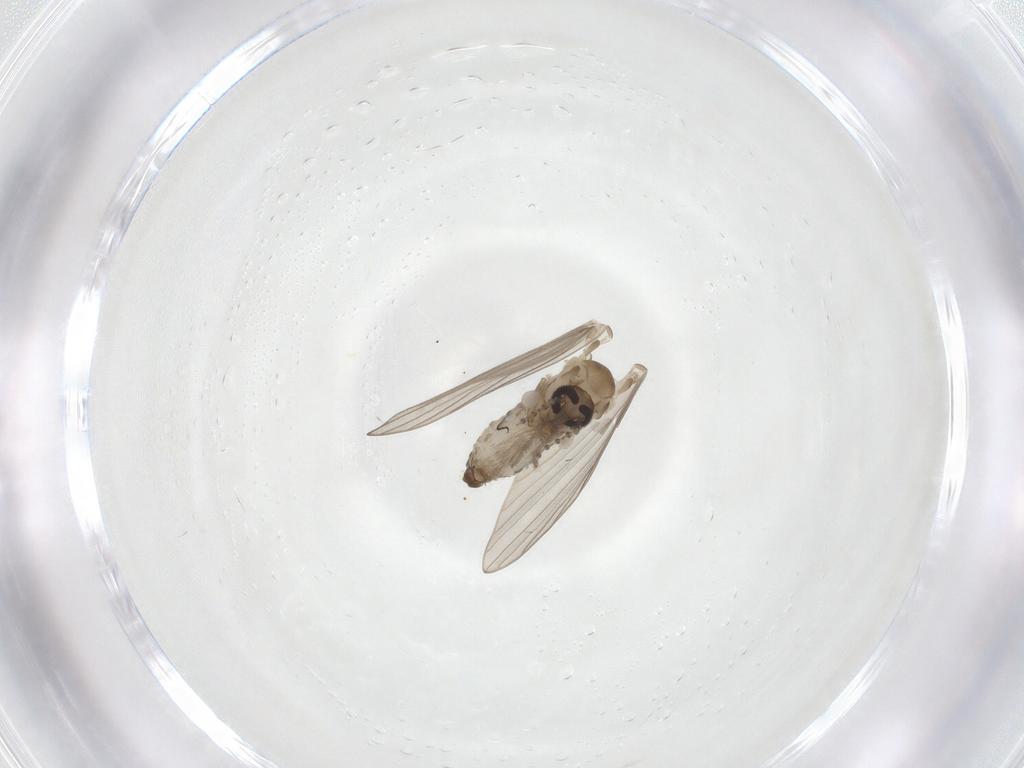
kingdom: Animalia
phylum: Arthropoda
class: Insecta
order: Diptera
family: Psychodidae
